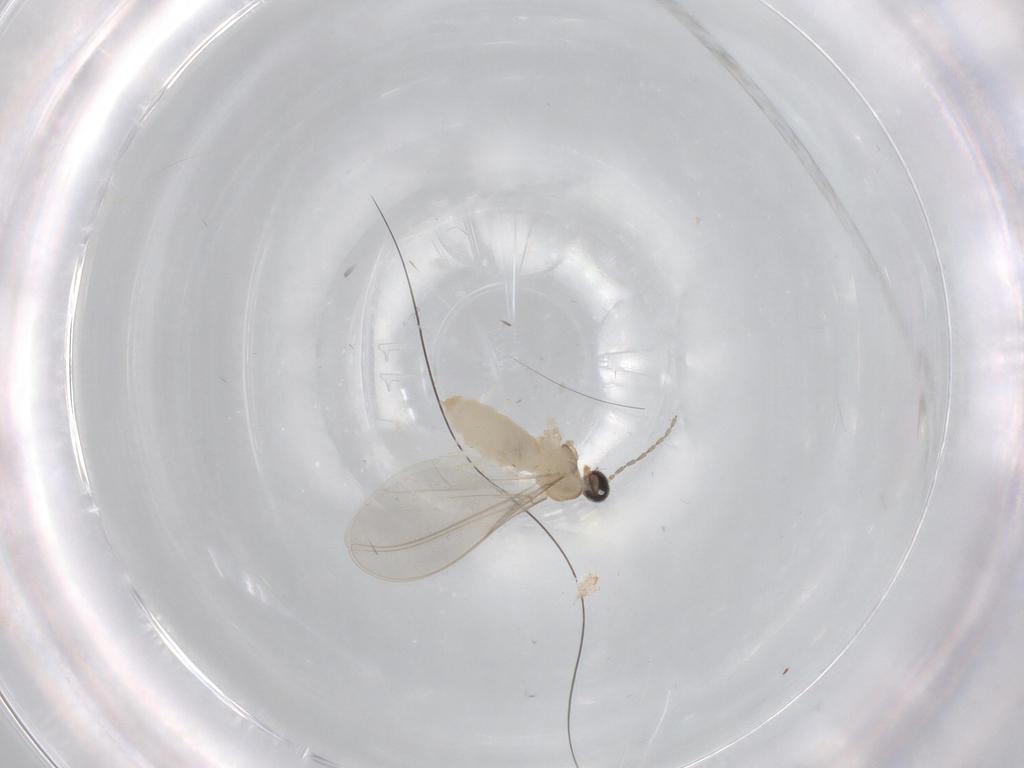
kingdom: Animalia
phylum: Arthropoda
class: Insecta
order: Diptera
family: Cecidomyiidae
